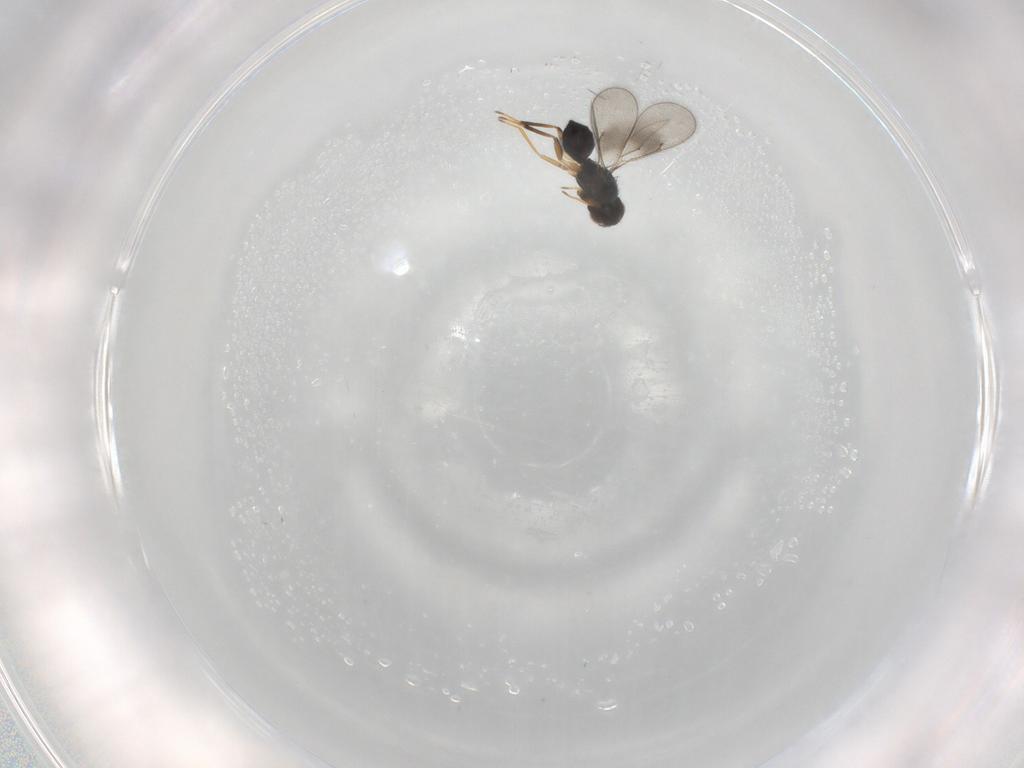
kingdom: Animalia
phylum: Arthropoda
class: Insecta
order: Hymenoptera
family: Eulophidae
